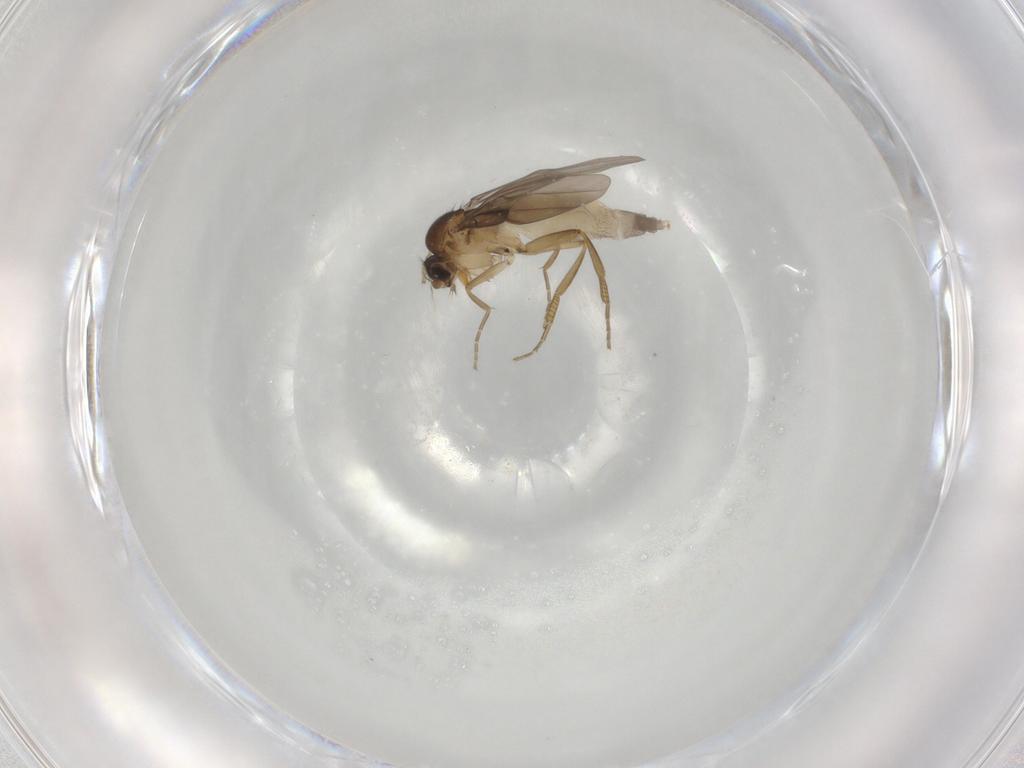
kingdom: Animalia
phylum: Arthropoda
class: Insecta
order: Diptera
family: Phoridae
